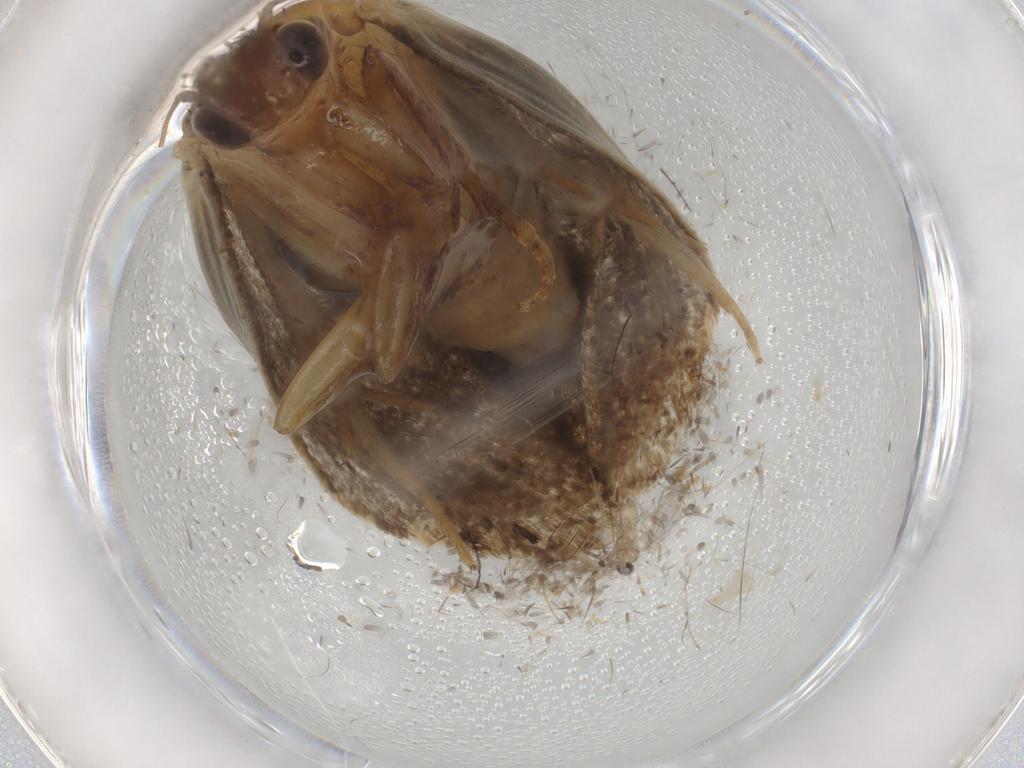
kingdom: Animalia
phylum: Arthropoda
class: Insecta
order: Lepidoptera
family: Tineidae
